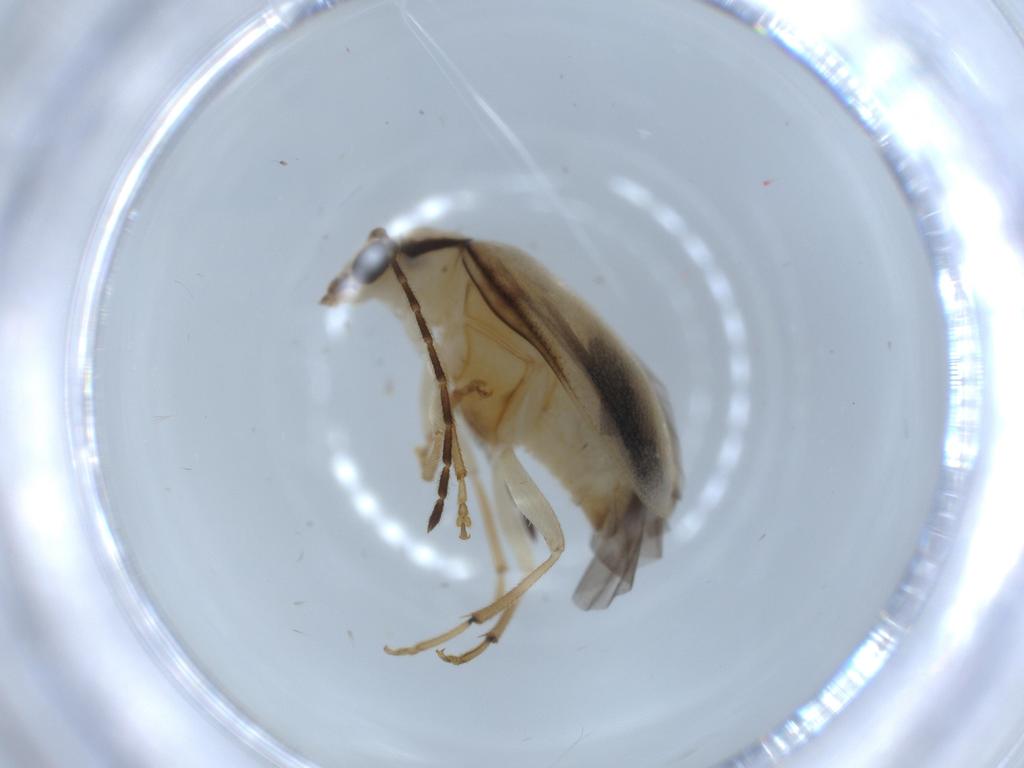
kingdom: Animalia
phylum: Arthropoda
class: Insecta
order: Coleoptera
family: Chrysomelidae
